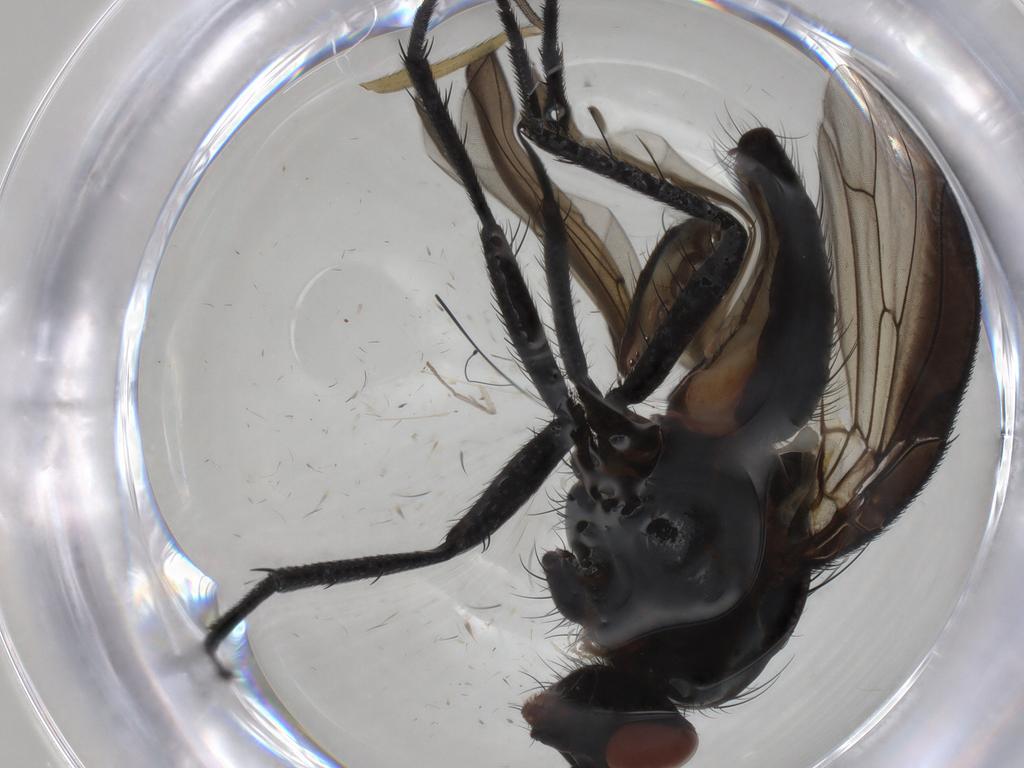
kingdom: Animalia
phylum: Arthropoda
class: Insecta
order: Diptera
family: Anthomyiidae
